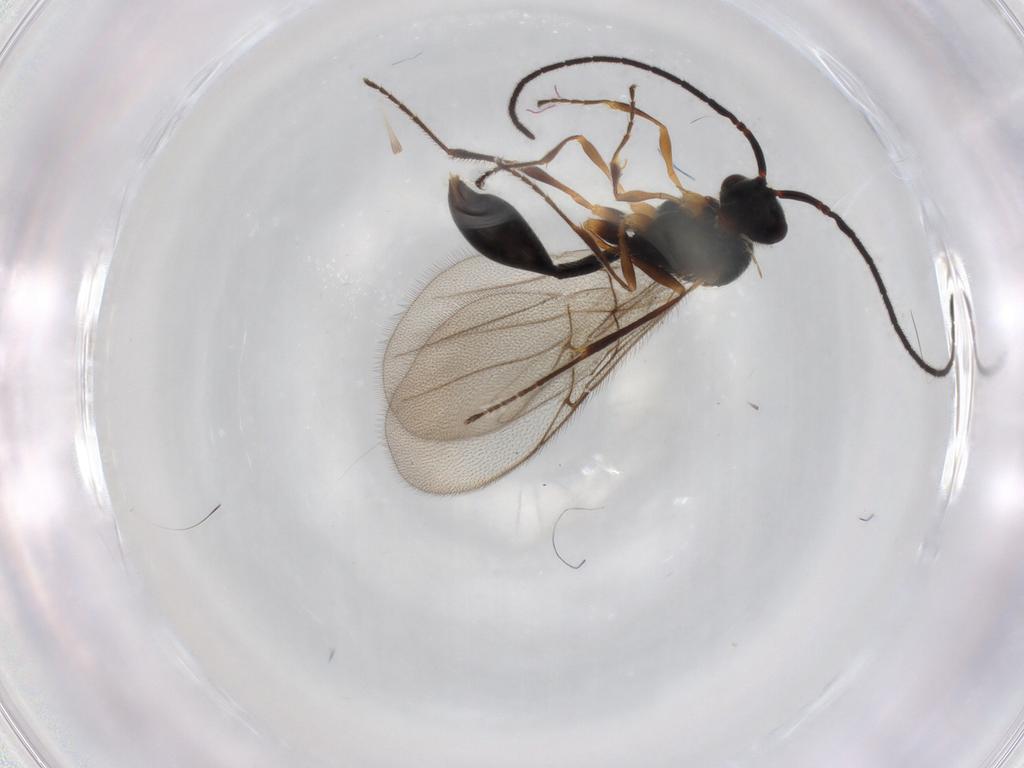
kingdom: Animalia
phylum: Arthropoda
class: Insecta
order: Hymenoptera
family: Diapriidae
